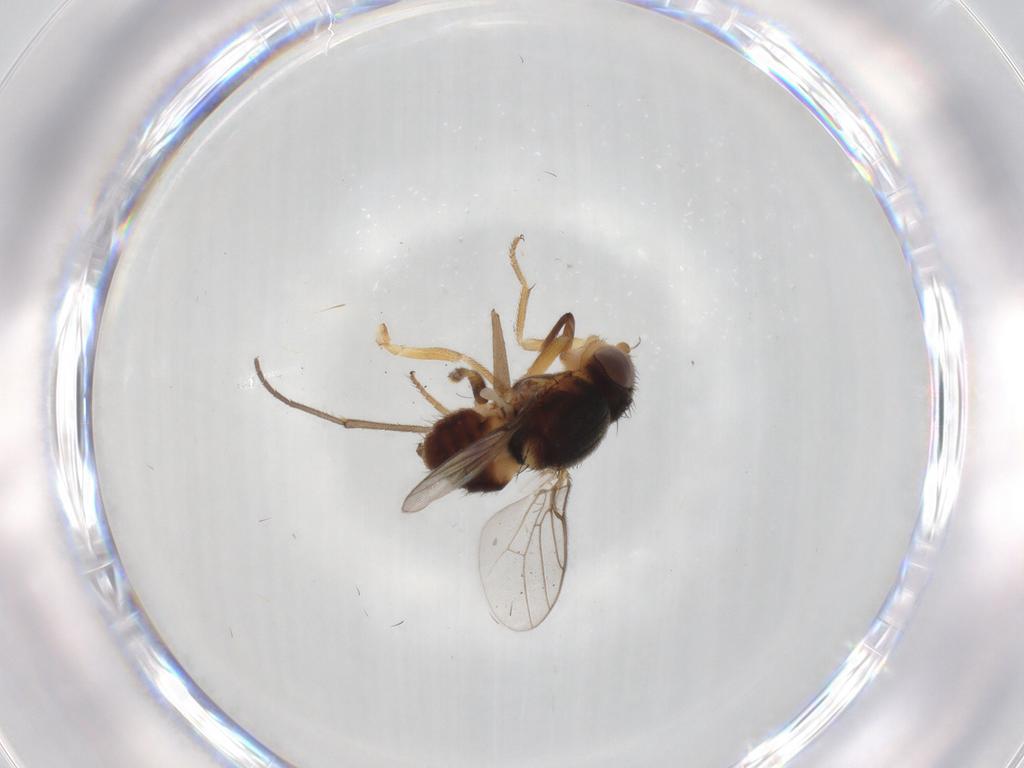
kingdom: Animalia
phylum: Arthropoda
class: Insecta
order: Diptera
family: Chloropidae
